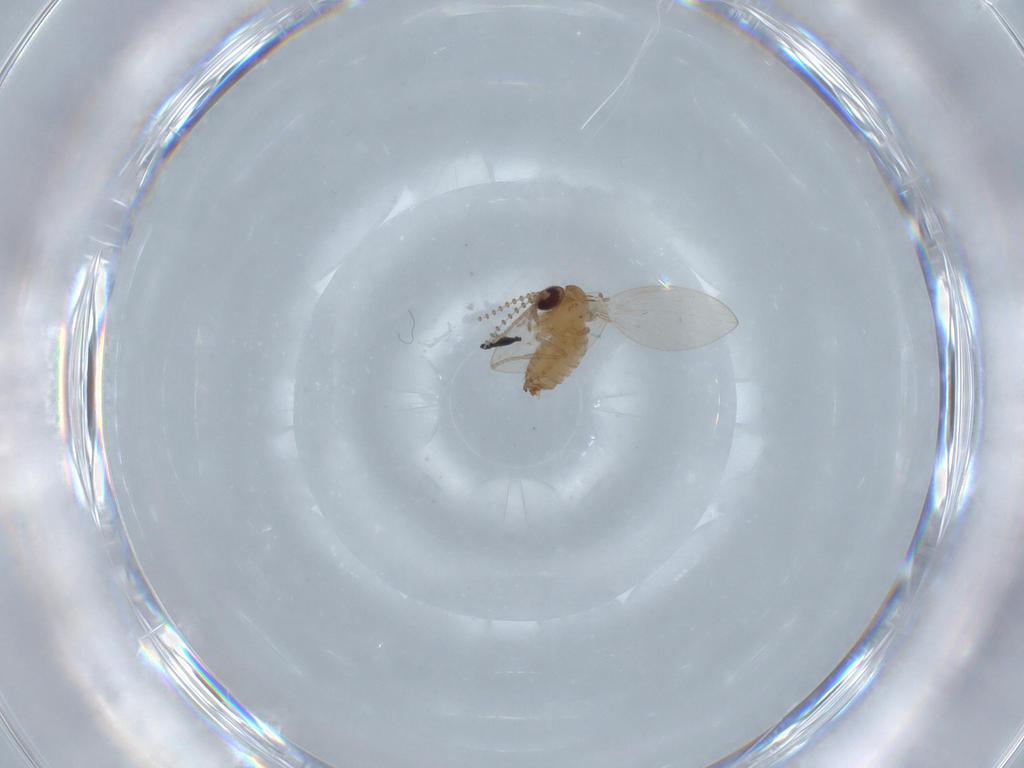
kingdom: Animalia
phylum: Arthropoda
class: Insecta
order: Diptera
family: Psychodidae
